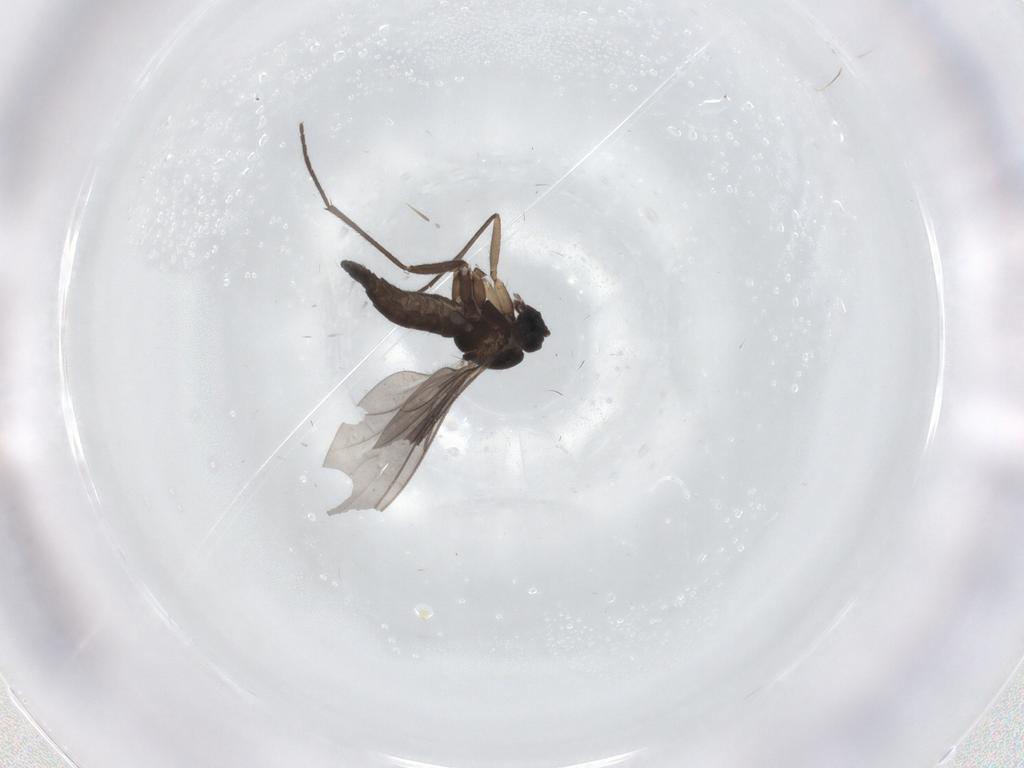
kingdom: Animalia
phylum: Arthropoda
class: Insecta
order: Diptera
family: Sciaridae
